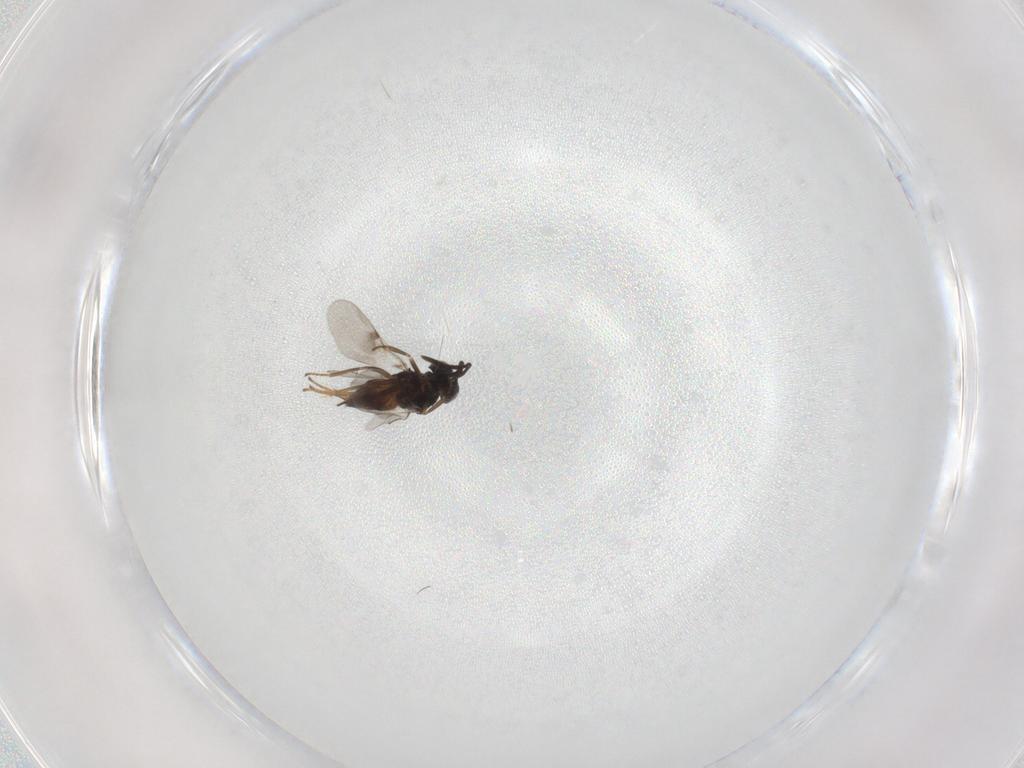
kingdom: Animalia
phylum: Arthropoda
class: Insecta
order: Hymenoptera
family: Encyrtidae
